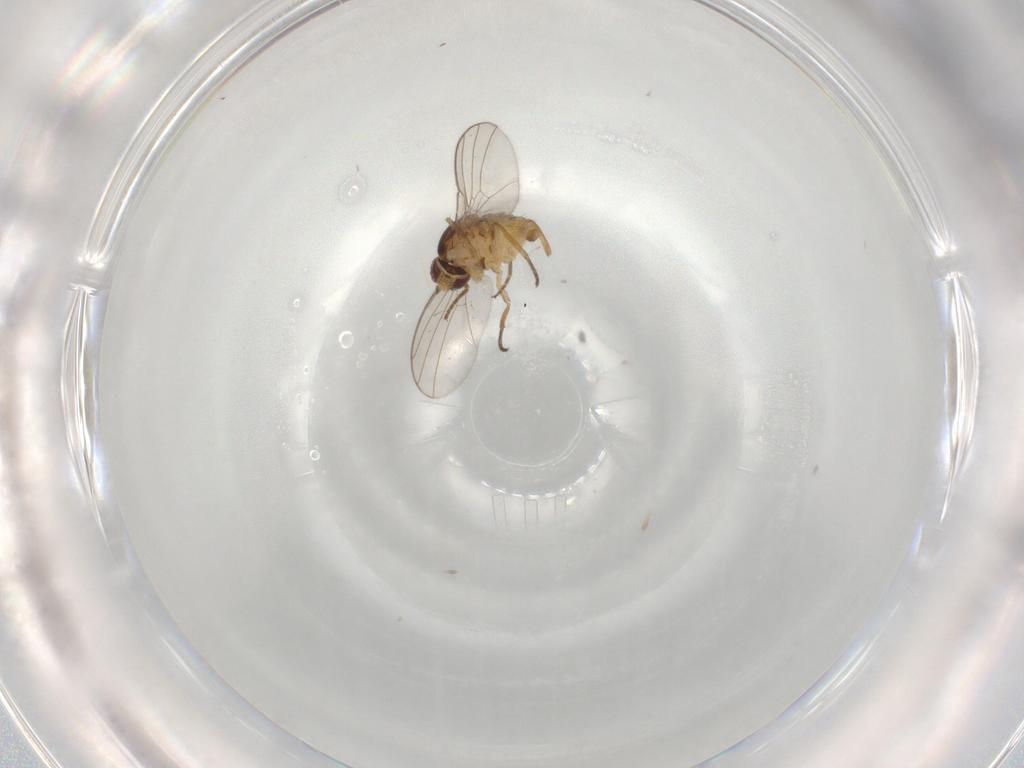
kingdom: Animalia
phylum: Arthropoda
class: Insecta
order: Diptera
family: Agromyzidae
